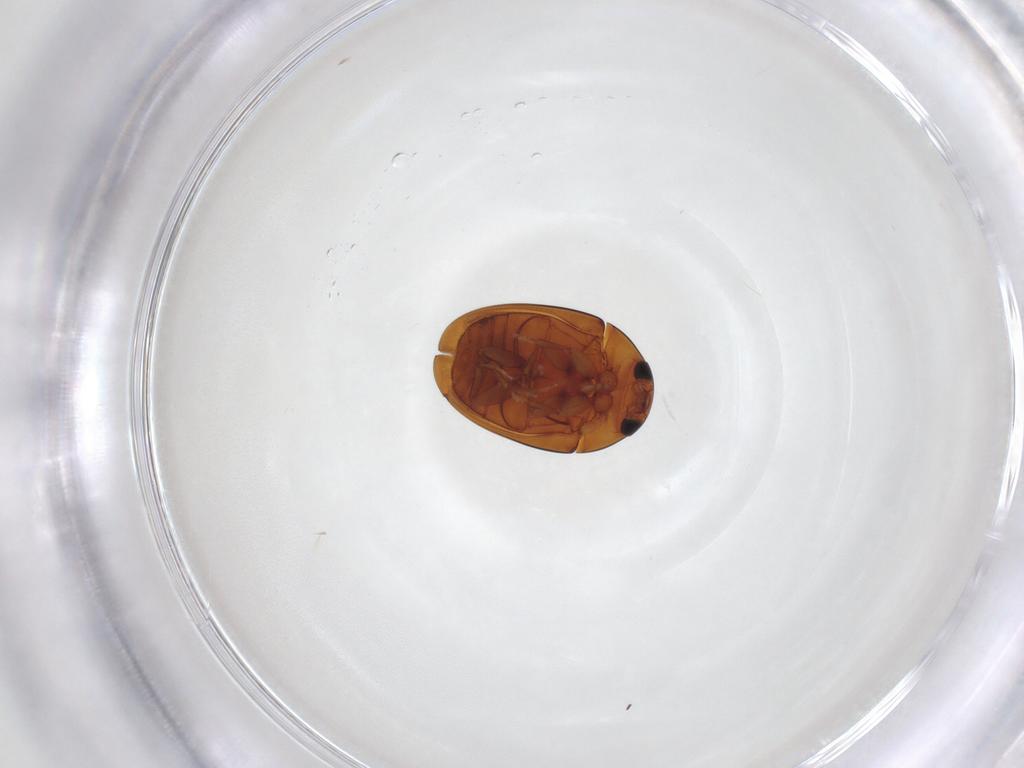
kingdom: Animalia
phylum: Arthropoda
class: Insecta
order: Coleoptera
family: Phalacridae
